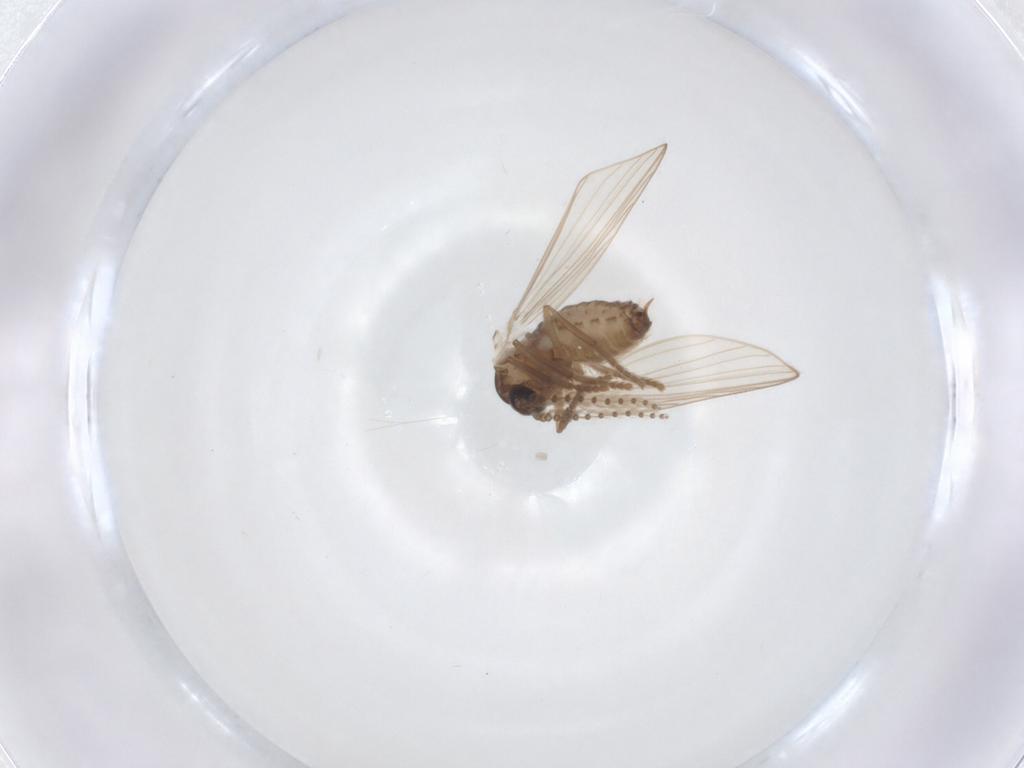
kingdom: Animalia
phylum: Arthropoda
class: Insecta
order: Diptera
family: Psychodidae
